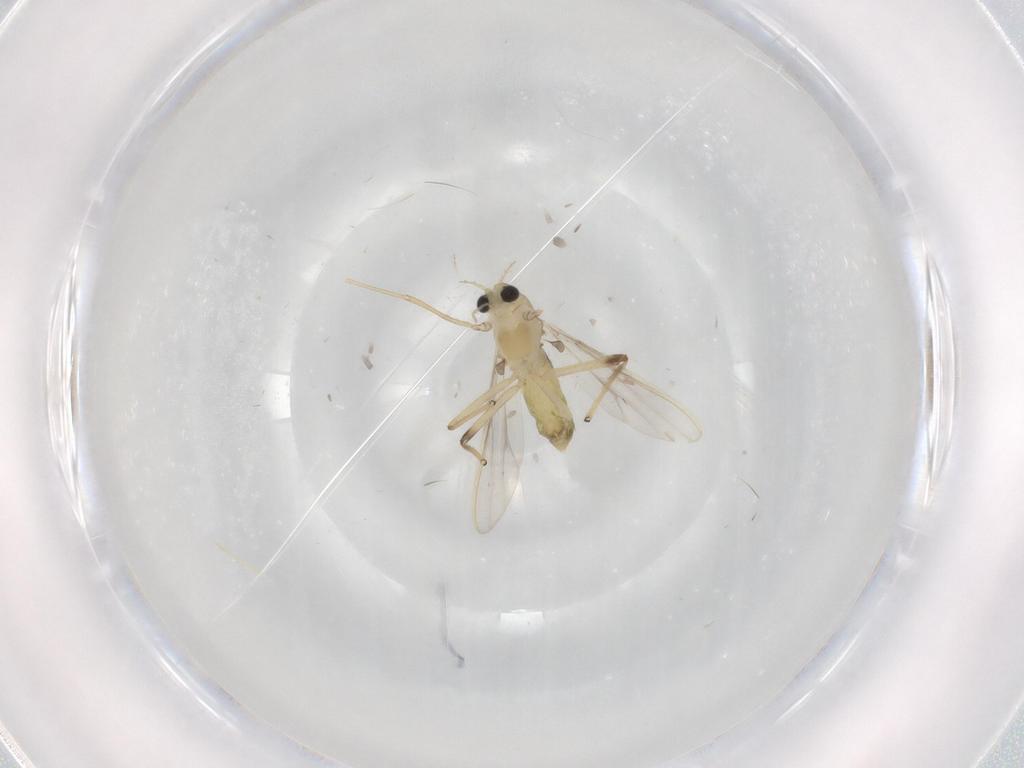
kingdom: Animalia
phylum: Arthropoda
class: Insecta
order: Diptera
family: Chironomidae
